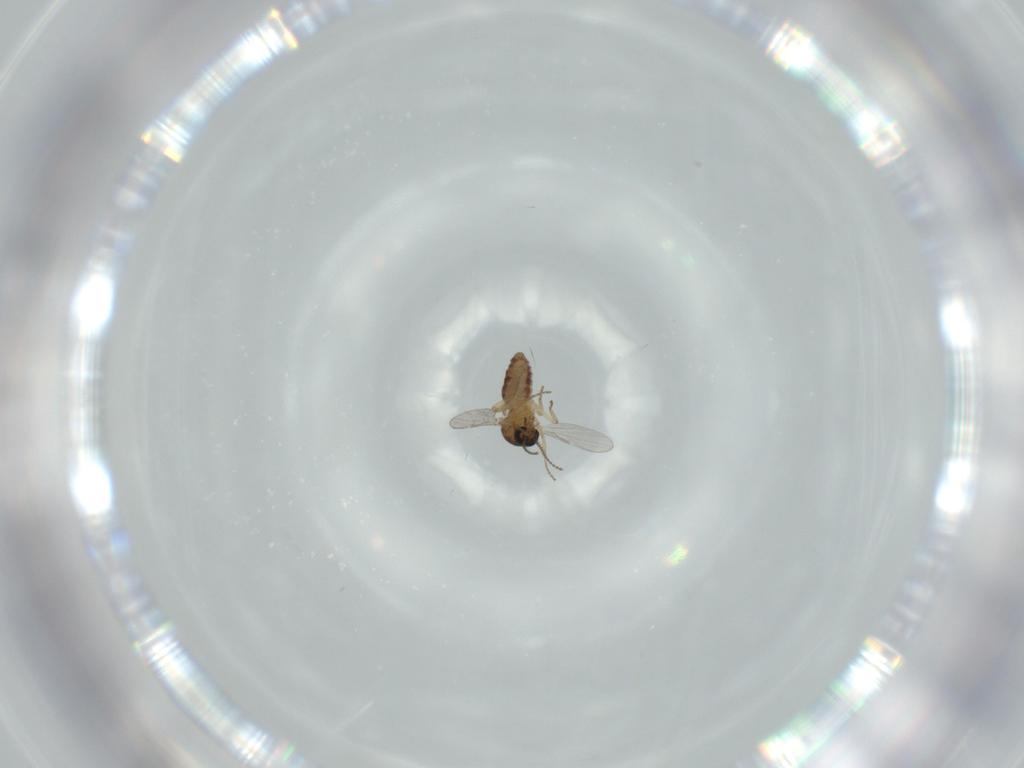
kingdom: Animalia
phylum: Arthropoda
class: Insecta
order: Diptera
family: Ceratopogonidae
